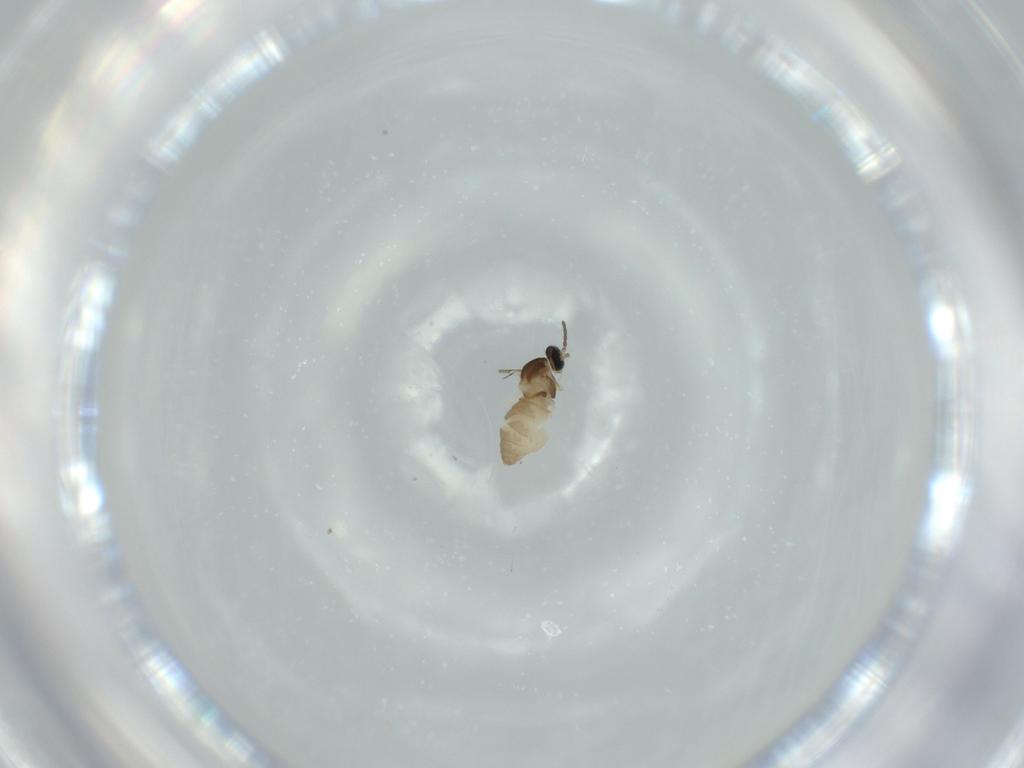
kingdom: Animalia
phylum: Arthropoda
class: Insecta
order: Diptera
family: Cecidomyiidae
